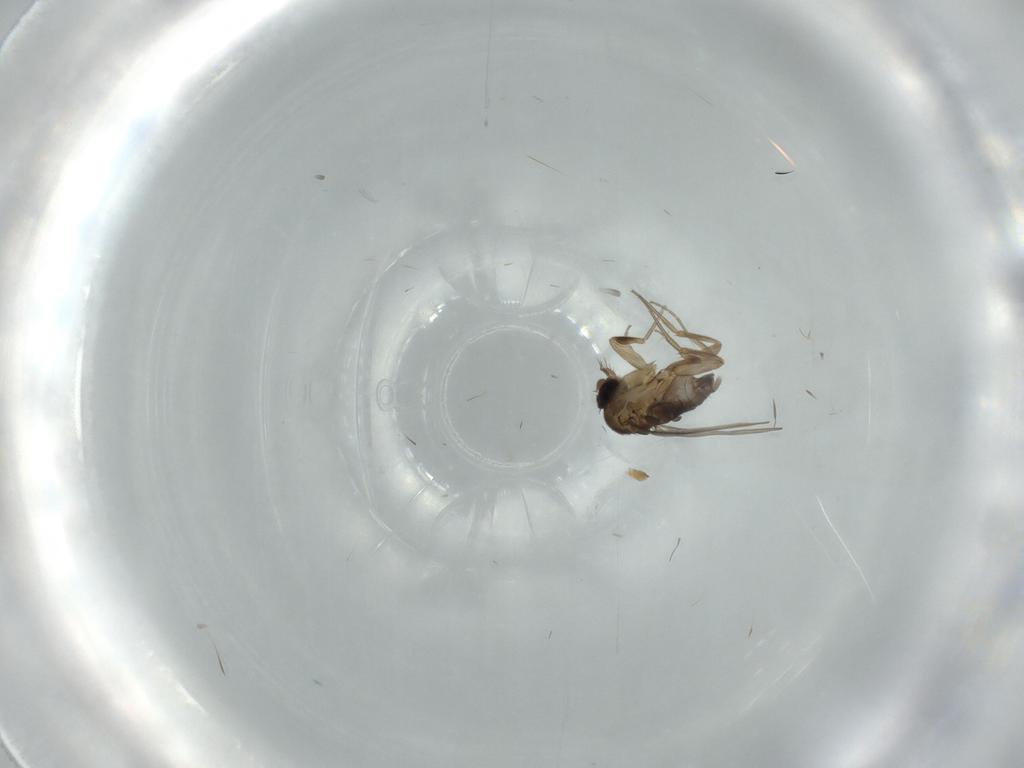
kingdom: Animalia
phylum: Arthropoda
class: Insecta
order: Diptera
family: Phoridae
